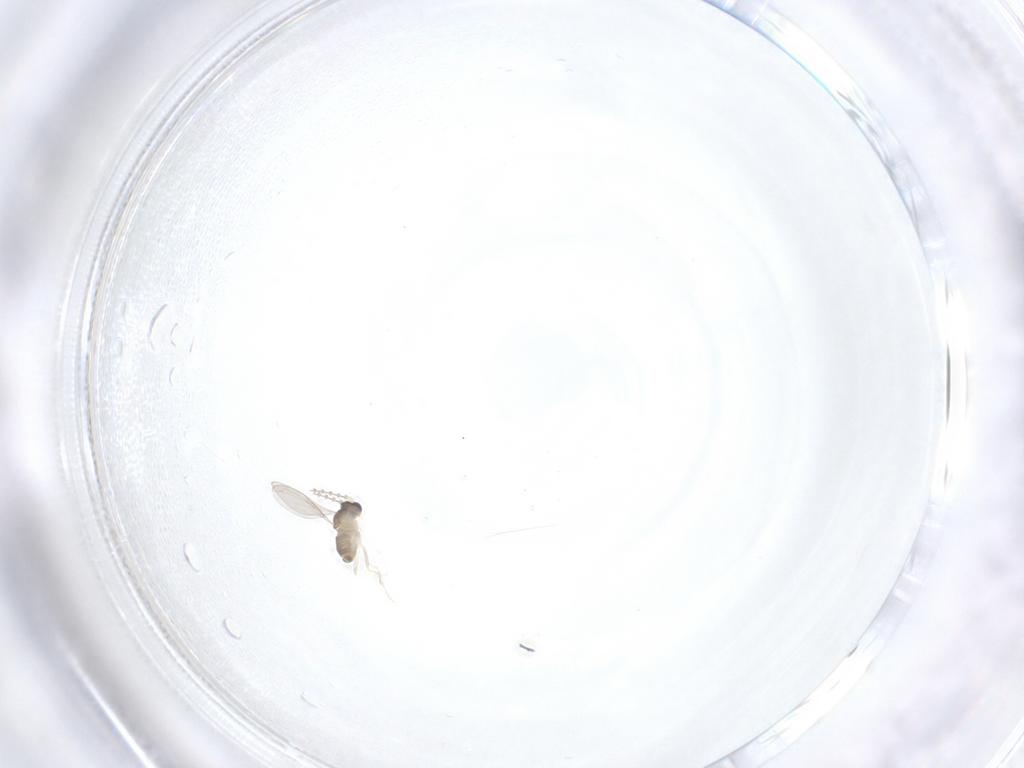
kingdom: Animalia
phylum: Arthropoda
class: Insecta
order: Diptera
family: Cecidomyiidae
